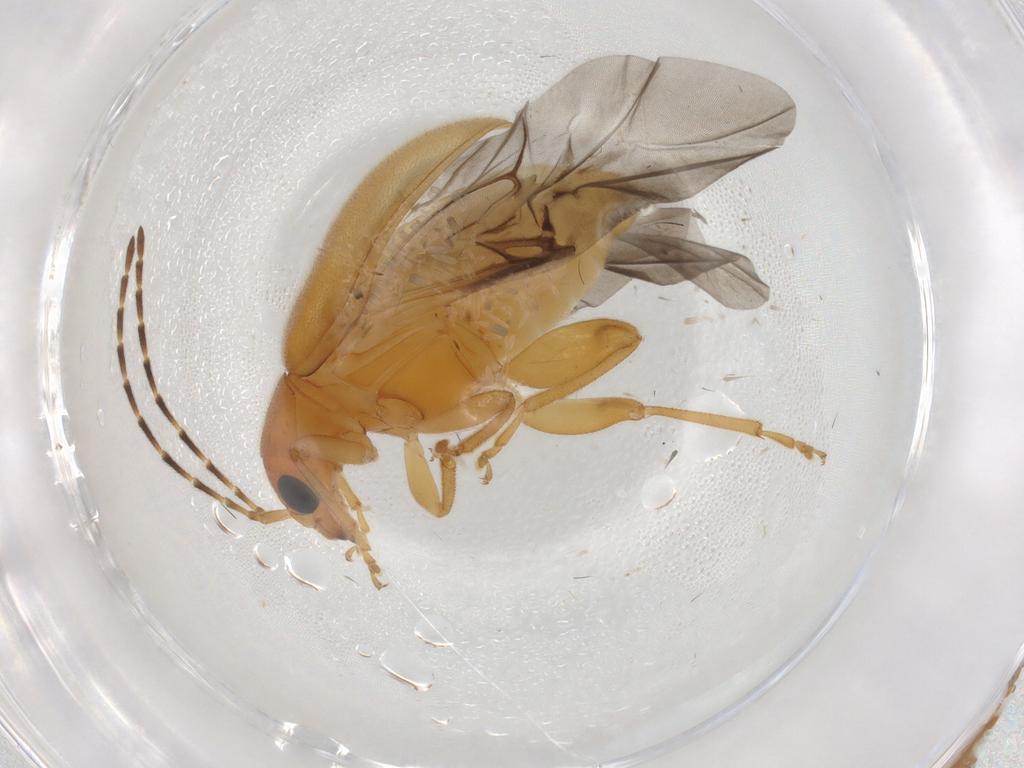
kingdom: Animalia
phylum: Arthropoda
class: Insecta
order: Coleoptera
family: Chrysomelidae
